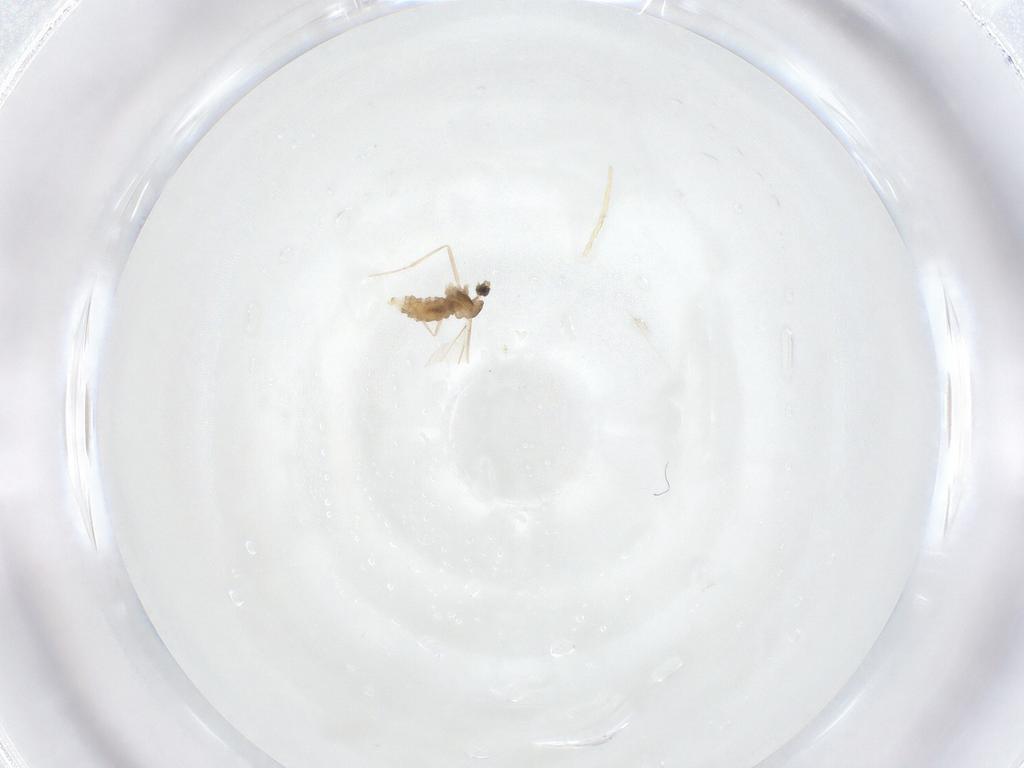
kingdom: Animalia
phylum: Arthropoda
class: Insecta
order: Diptera
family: Cecidomyiidae
